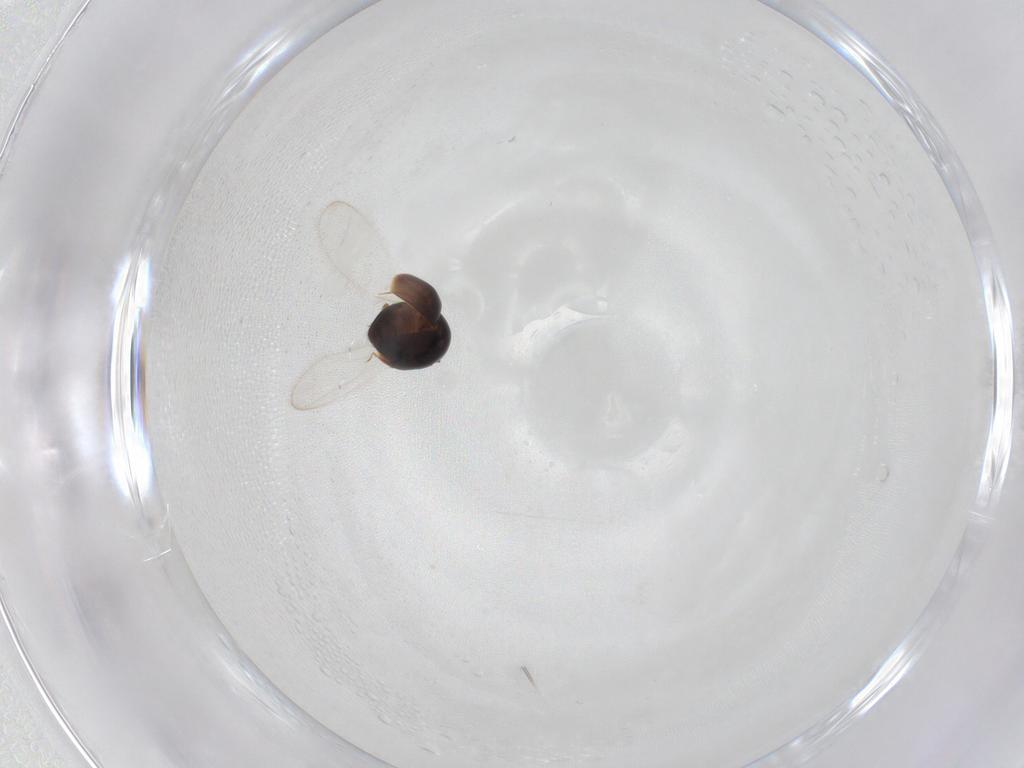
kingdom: Animalia
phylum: Arthropoda
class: Insecta
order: Coleoptera
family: Corylophidae
